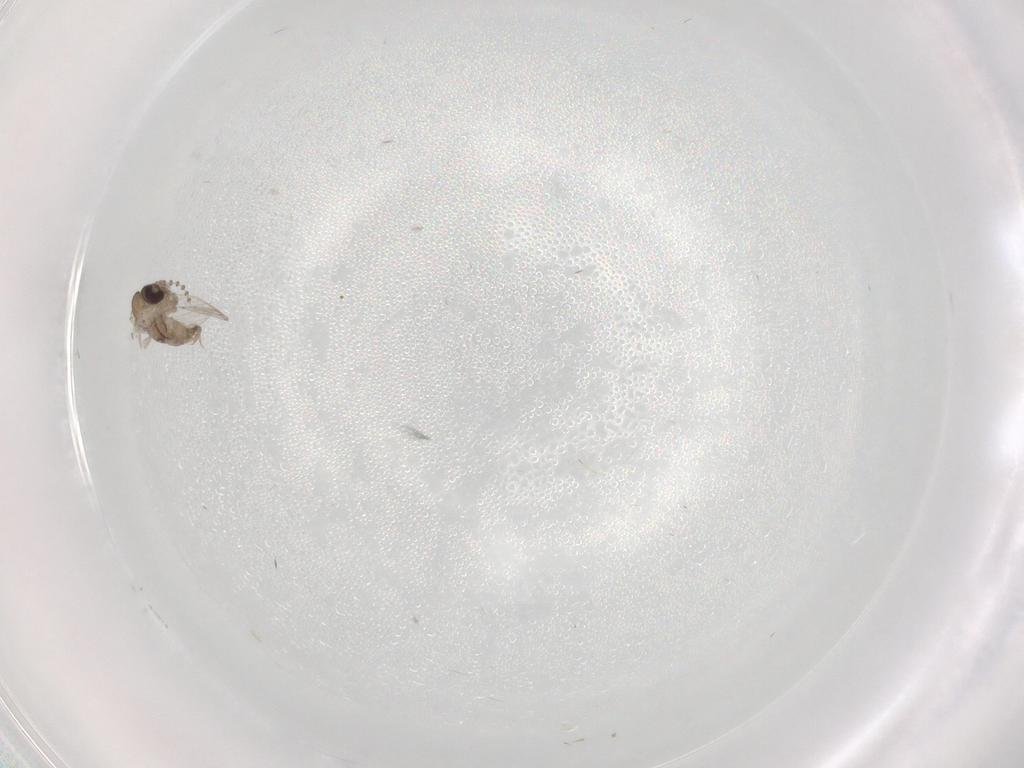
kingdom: Animalia
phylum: Arthropoda
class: Insecta
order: Diptera
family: Psychodidae
